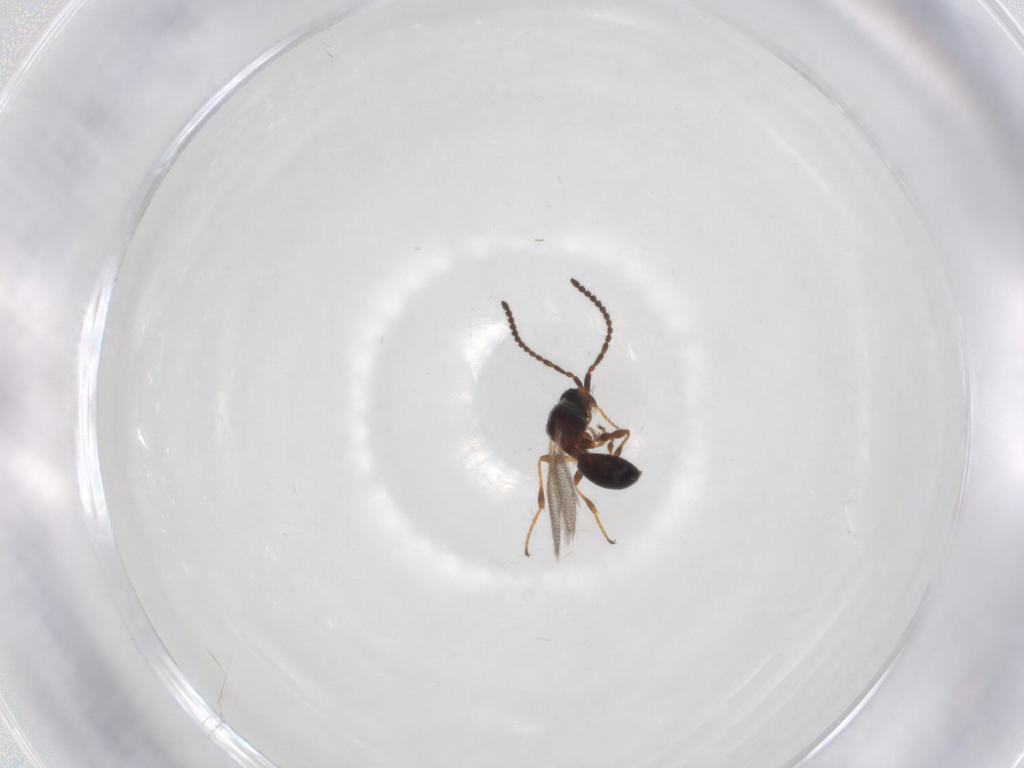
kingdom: Animalia
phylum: Arthropoda
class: Insecta
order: Hymenoptera
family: Diapriidae
